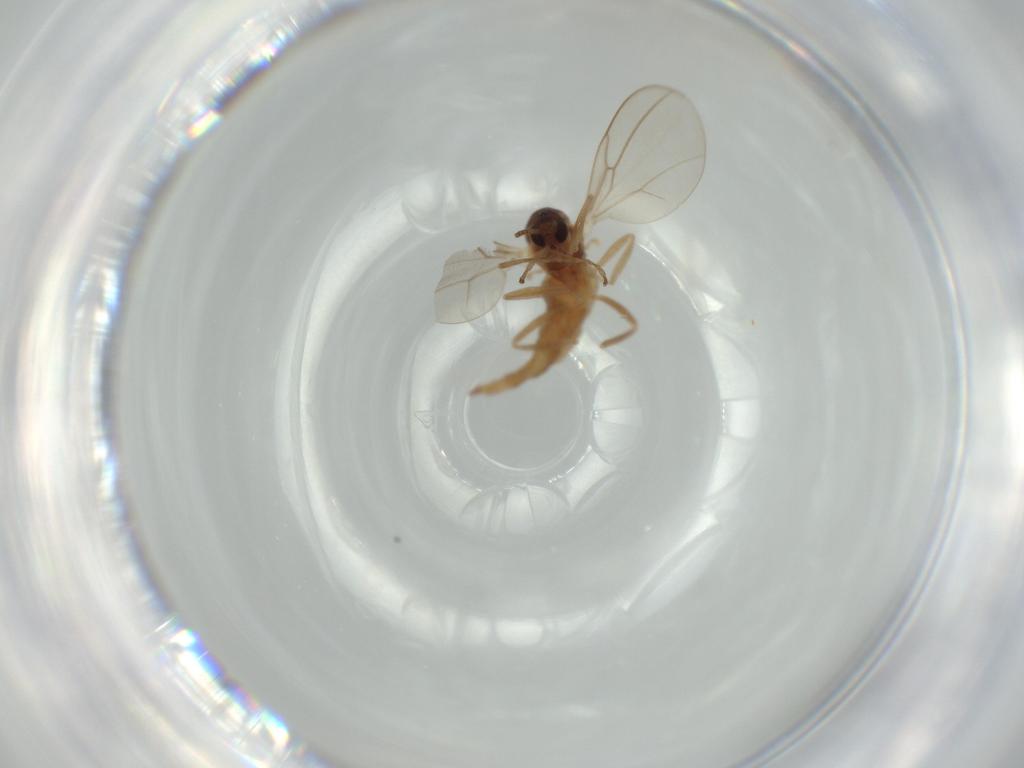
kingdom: Animalia
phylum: Arthropoda
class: Insecta
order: Diptera
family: Cecidomyiidae
